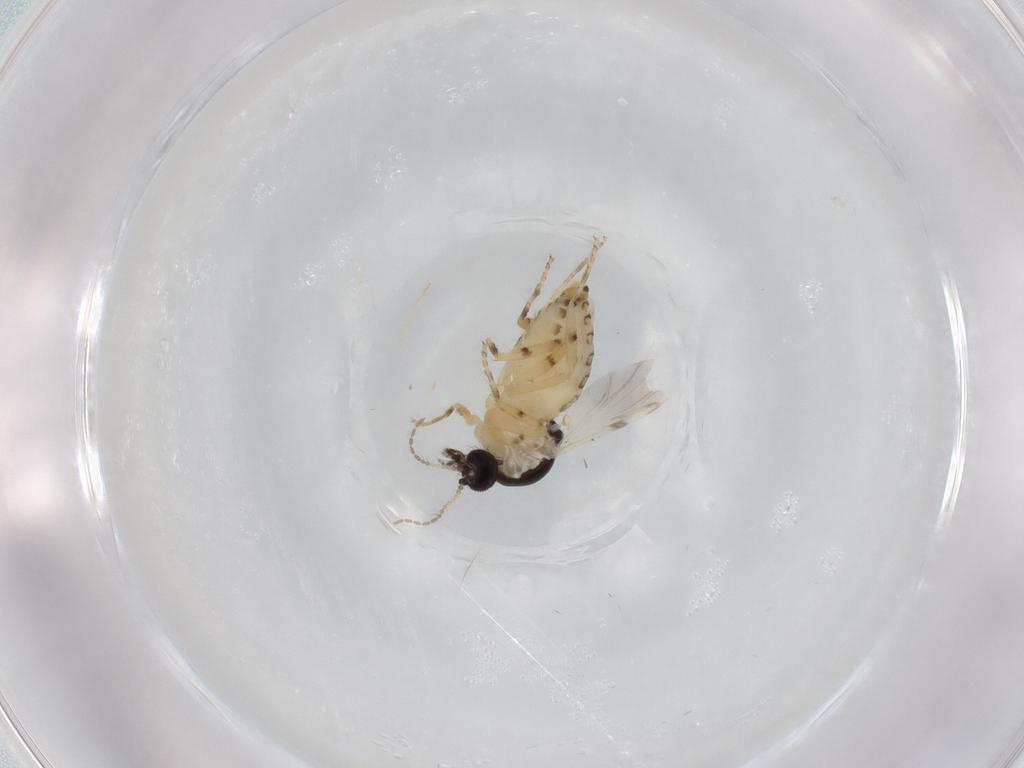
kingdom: Animalia
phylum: Arthropoda
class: Insecta
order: Diptera
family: Ceratopogonidae
